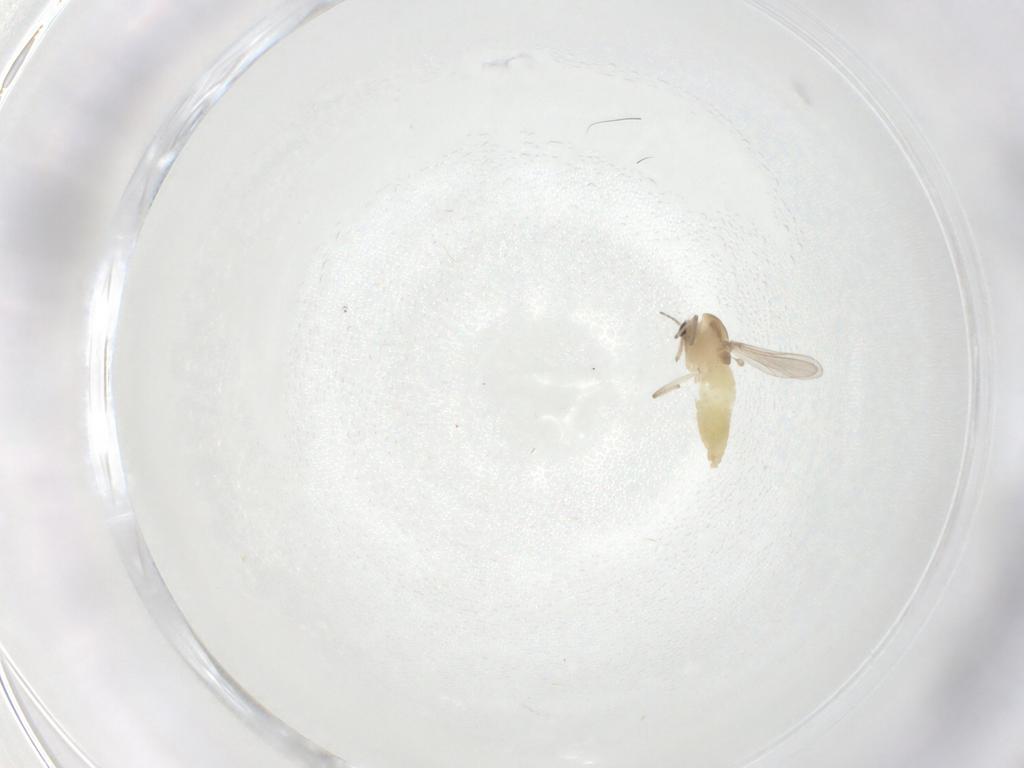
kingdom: Animalia
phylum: Arthropoda
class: Insecta
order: Diptera
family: Chironomidae
